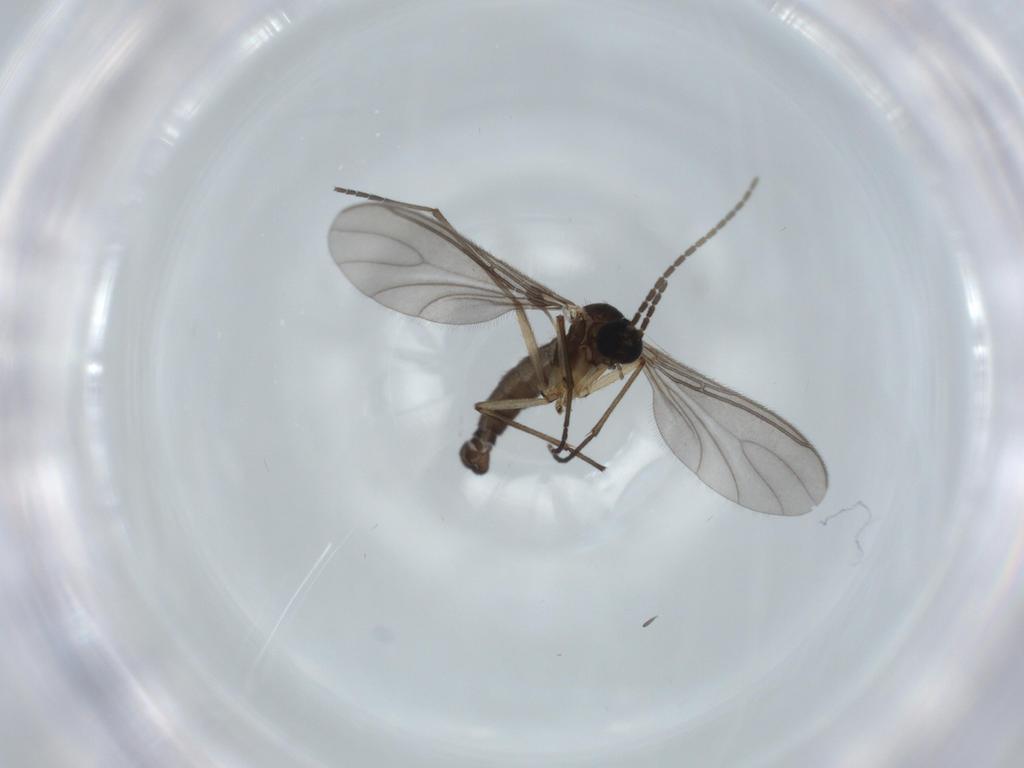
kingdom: Animalia
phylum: Arthropoda
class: Insecta
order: Diptera
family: Sciaridae
